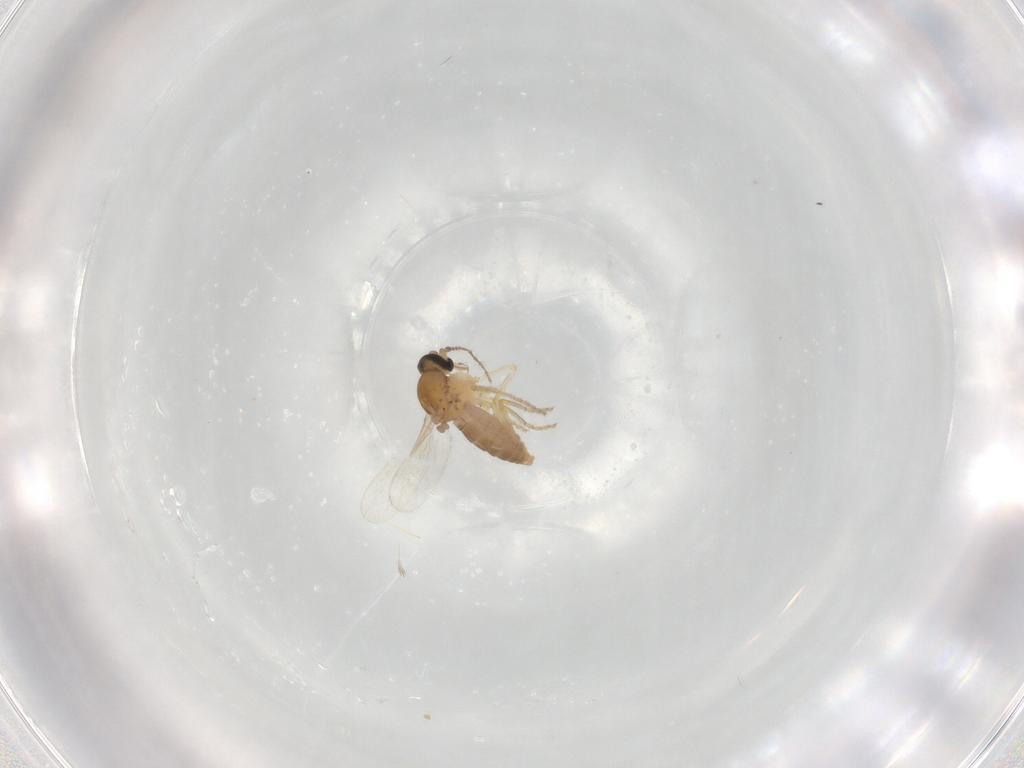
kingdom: Animalia
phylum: Arthropoda
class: Insecta
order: Diptera
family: Ceratopogonidae
